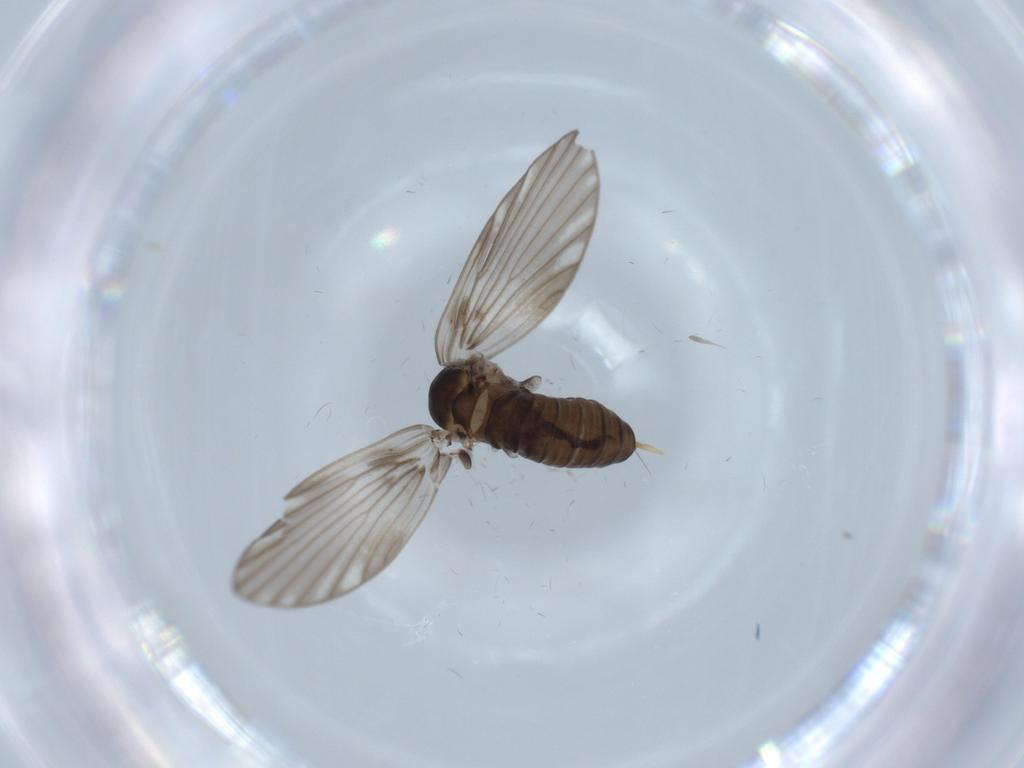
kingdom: Animalia
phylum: Arthropoda
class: Insecta
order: Diptera
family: Psychodidae
